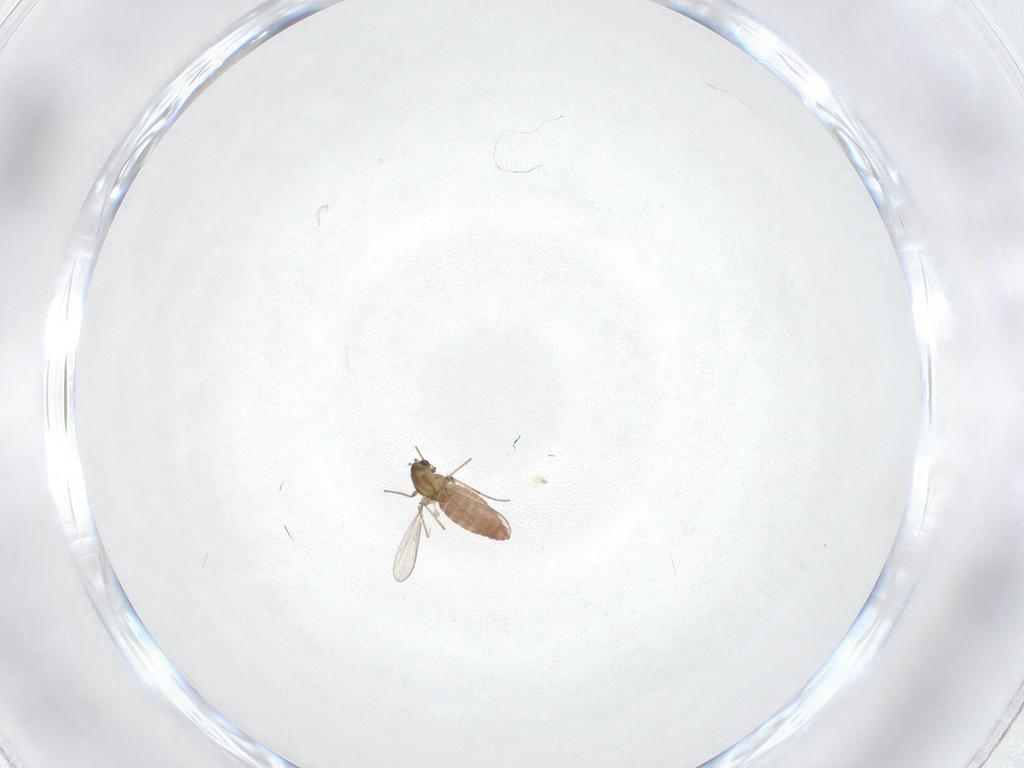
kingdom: Animalia
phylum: Arthropoda
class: Insecta
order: Diptera
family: Chironomidae
